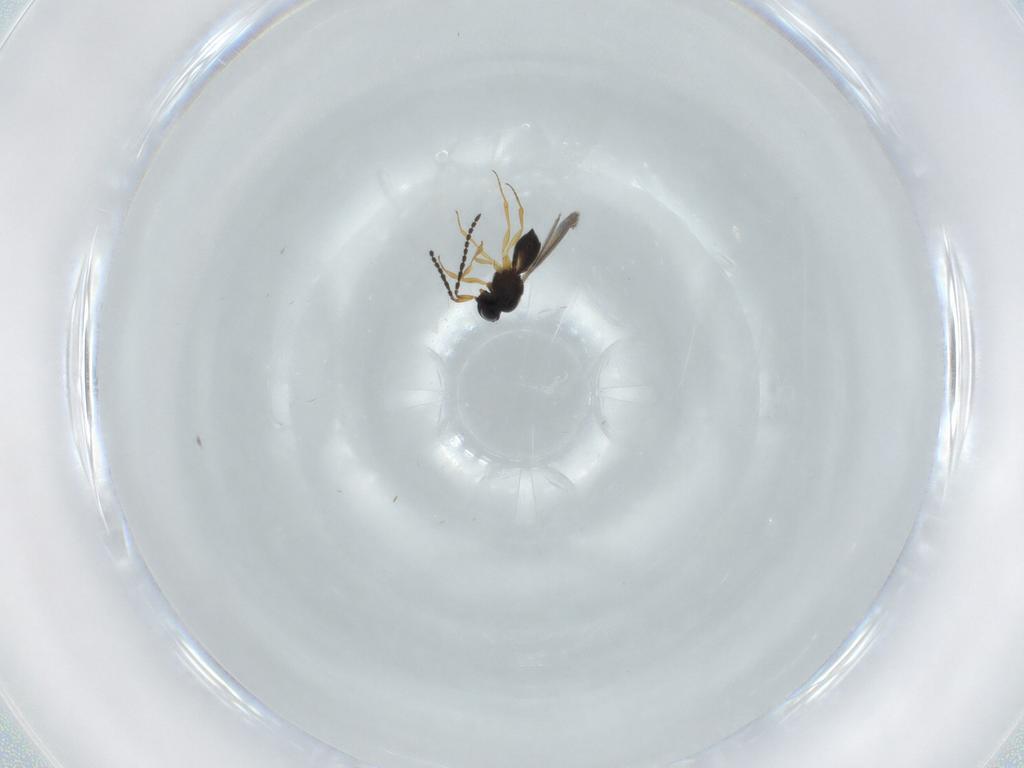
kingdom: Animalia
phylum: Arthropoda
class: Insecta
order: Hymenoptera
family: Scelionidae
